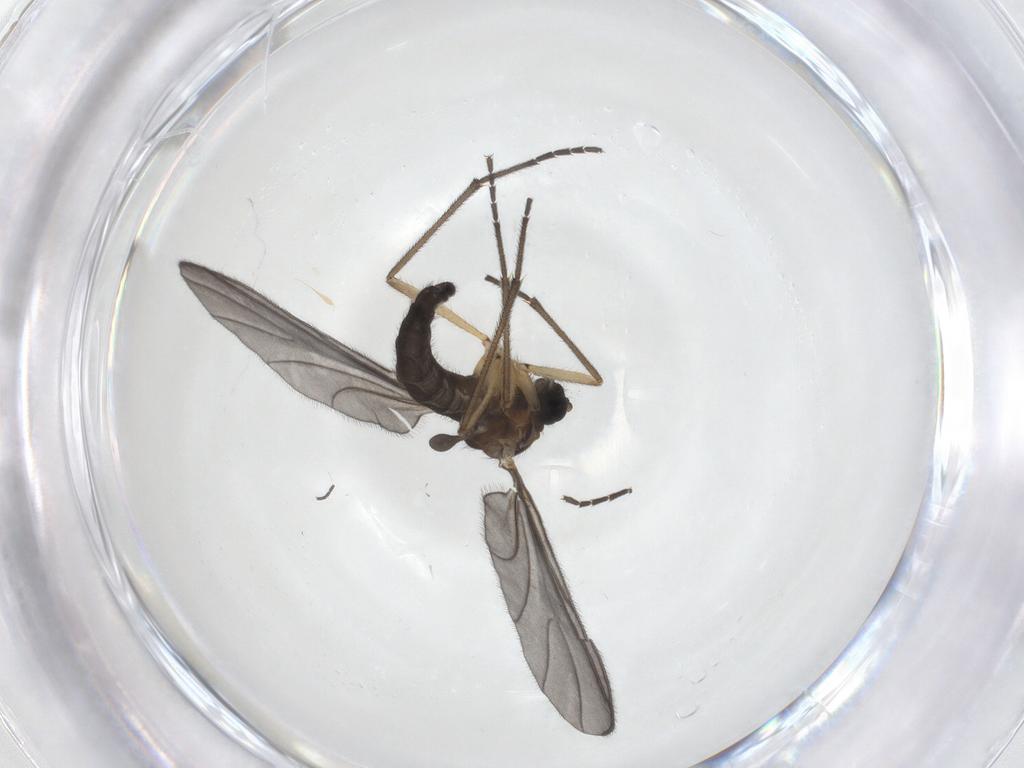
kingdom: Animalia
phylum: Arthropoda
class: Insecta
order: Diptera
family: Sciaridae
